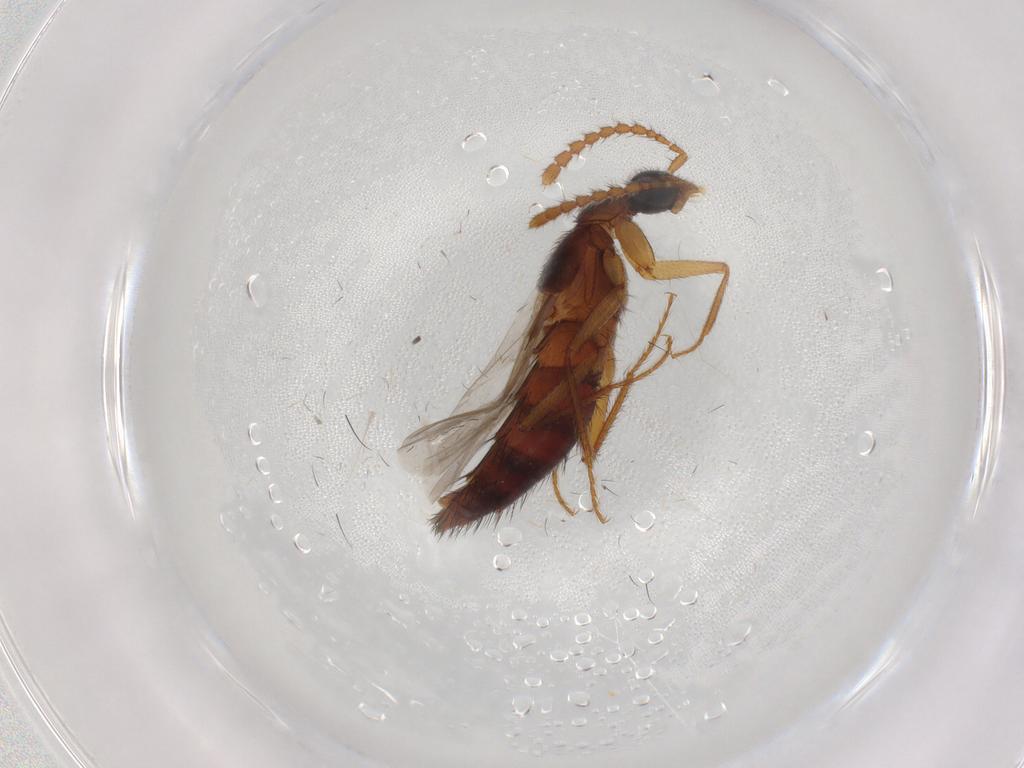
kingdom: Animalia
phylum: Arthropoda
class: Insecta
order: Coleoptera
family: Staphylinidae
